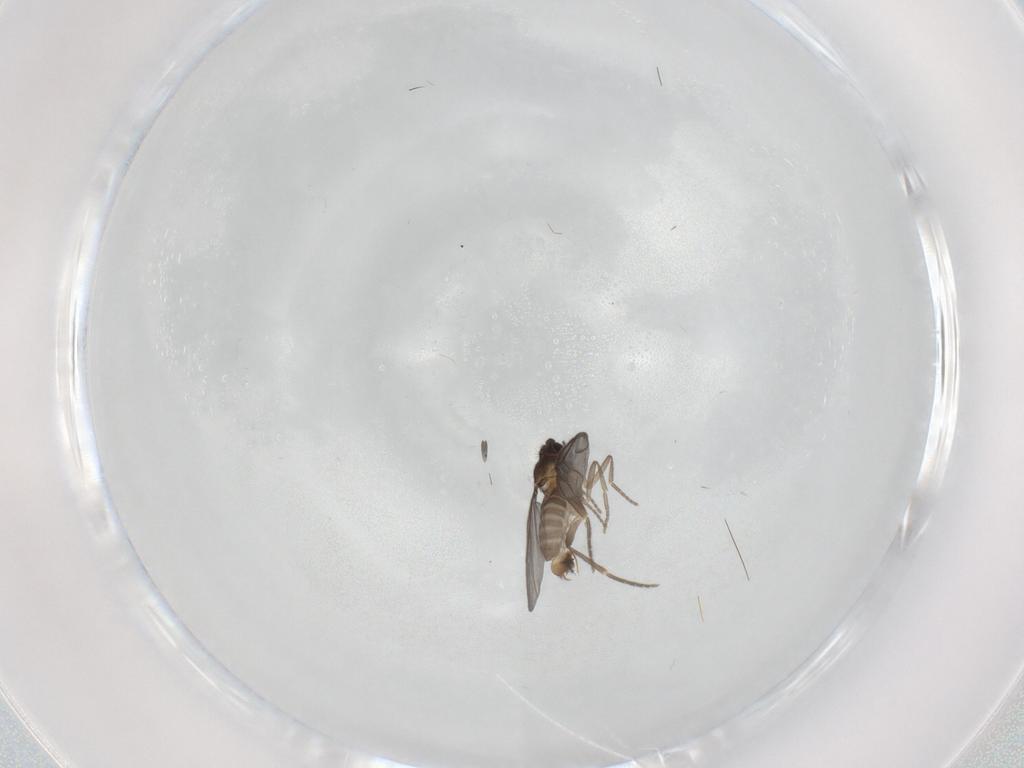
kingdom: Animalia
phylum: Arthropoda
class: Insecta
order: Diptera
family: Phoridae
